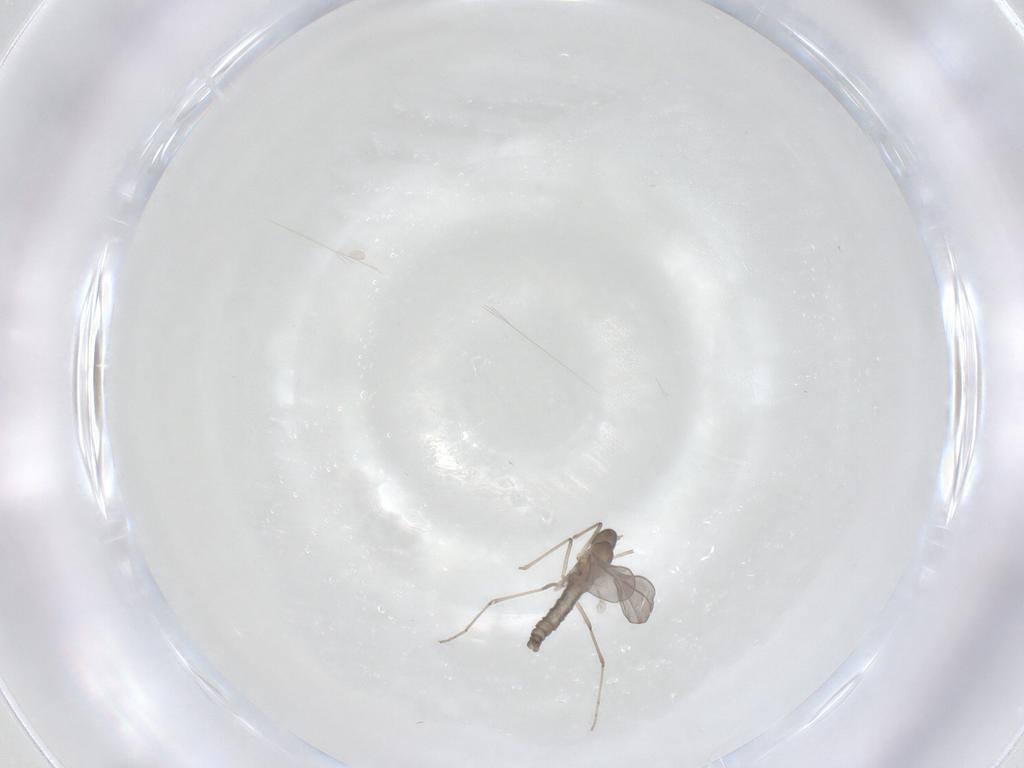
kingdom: Animalia
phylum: Arthropoda
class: Insecta
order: Diptera
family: Cecidomyiidae
